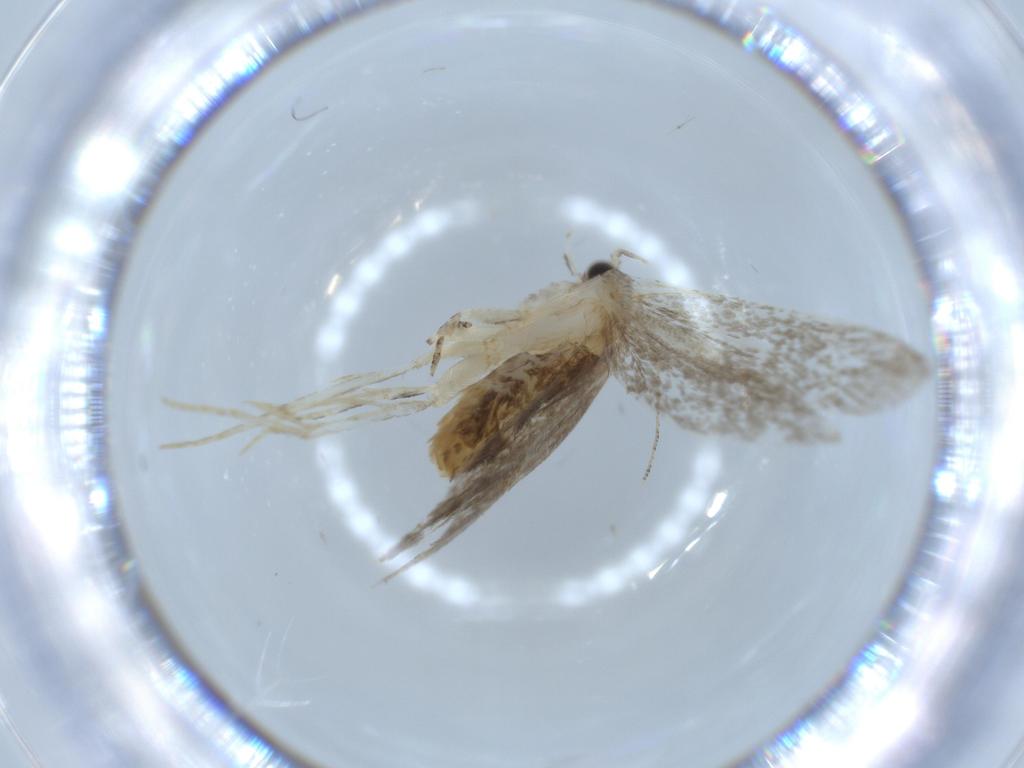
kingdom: Animalia
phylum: Arthropoda
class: Insecta
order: Lepidoptera
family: Tineidae
